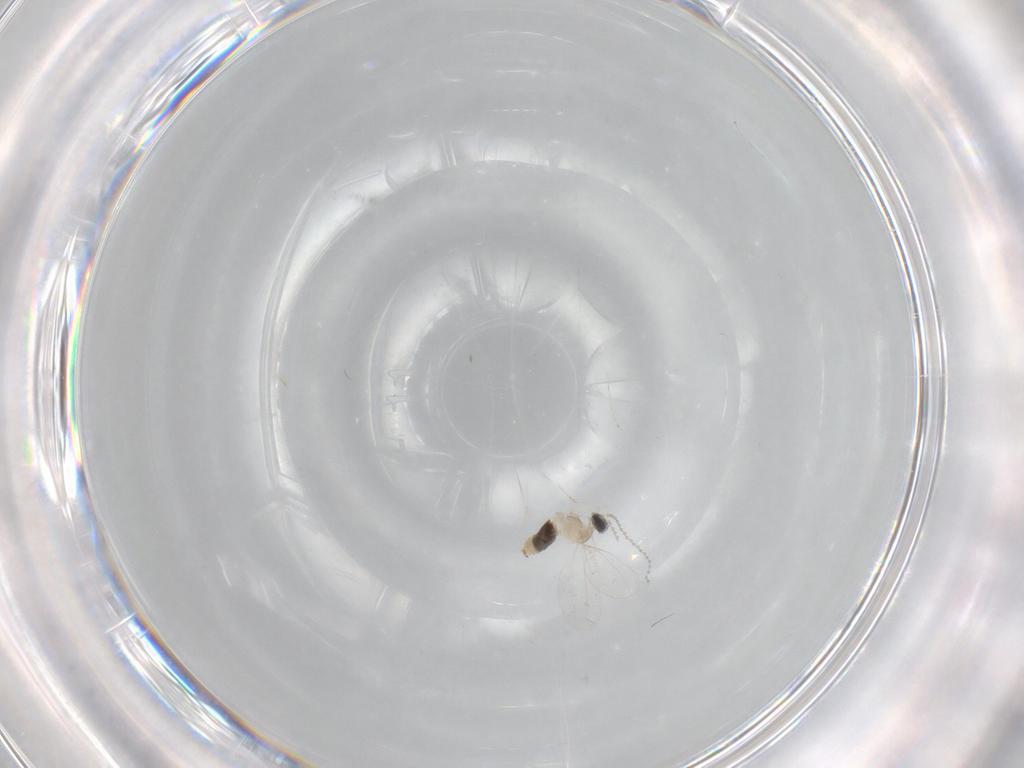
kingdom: Animalia
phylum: Arthropoda
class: Insecta
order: Diptera
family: Cecidomyiidae
